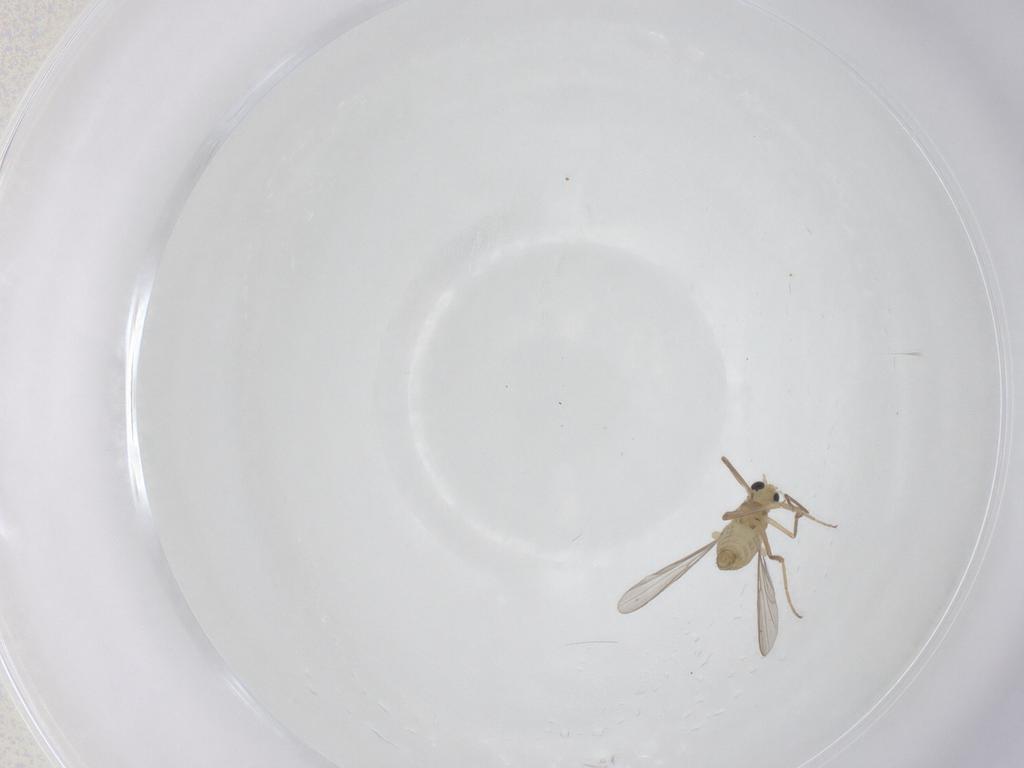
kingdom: Animalia
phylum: Arthropoda
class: Insecta
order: Diptera
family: Chironomidae
